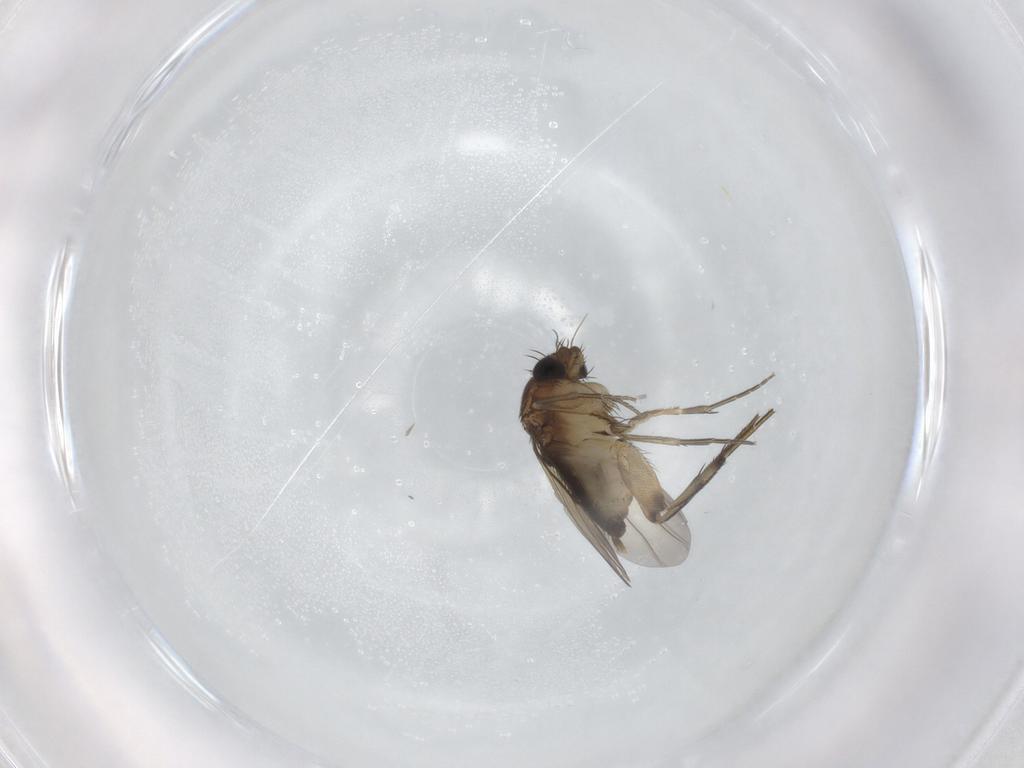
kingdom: Animalia
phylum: Arthropoda
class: Insecta
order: Diptera
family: Phoridae
